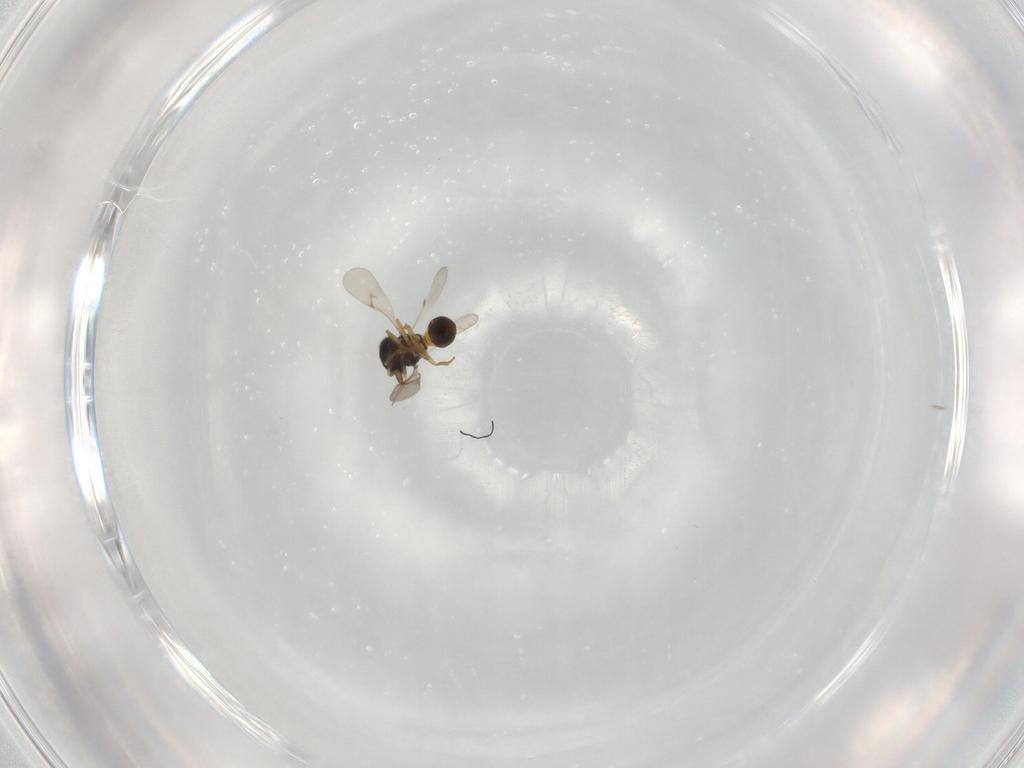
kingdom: Animalia
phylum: Arthropoda
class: Insecta
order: Hymenoptera
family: Scelionidae
